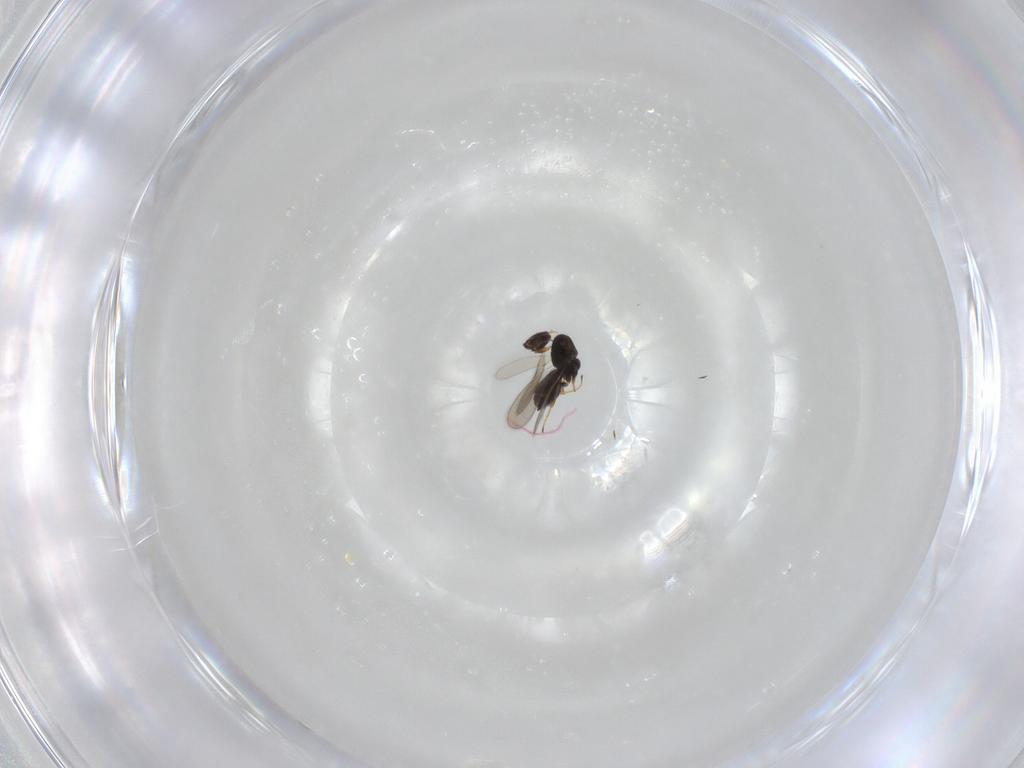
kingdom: Animalia
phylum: Arthropoda
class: Insecta
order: Hymenoptera
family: Scelionidae
